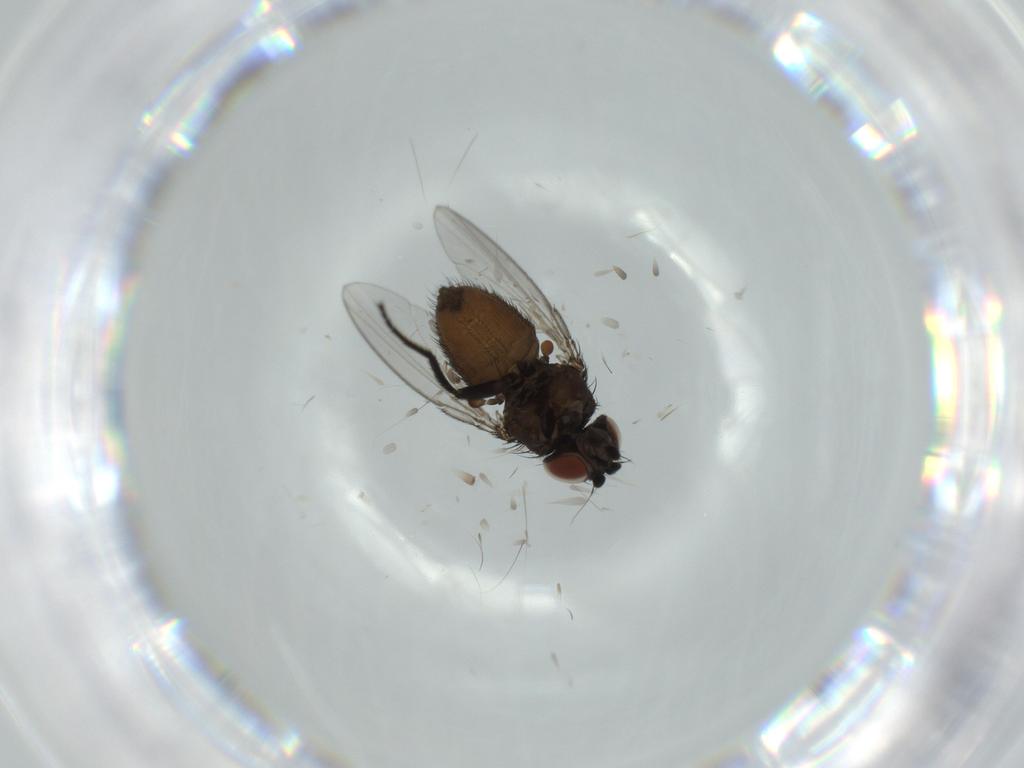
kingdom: Animalia
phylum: Arthropoda
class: Insecta
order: Diptera
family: Milichiidae
